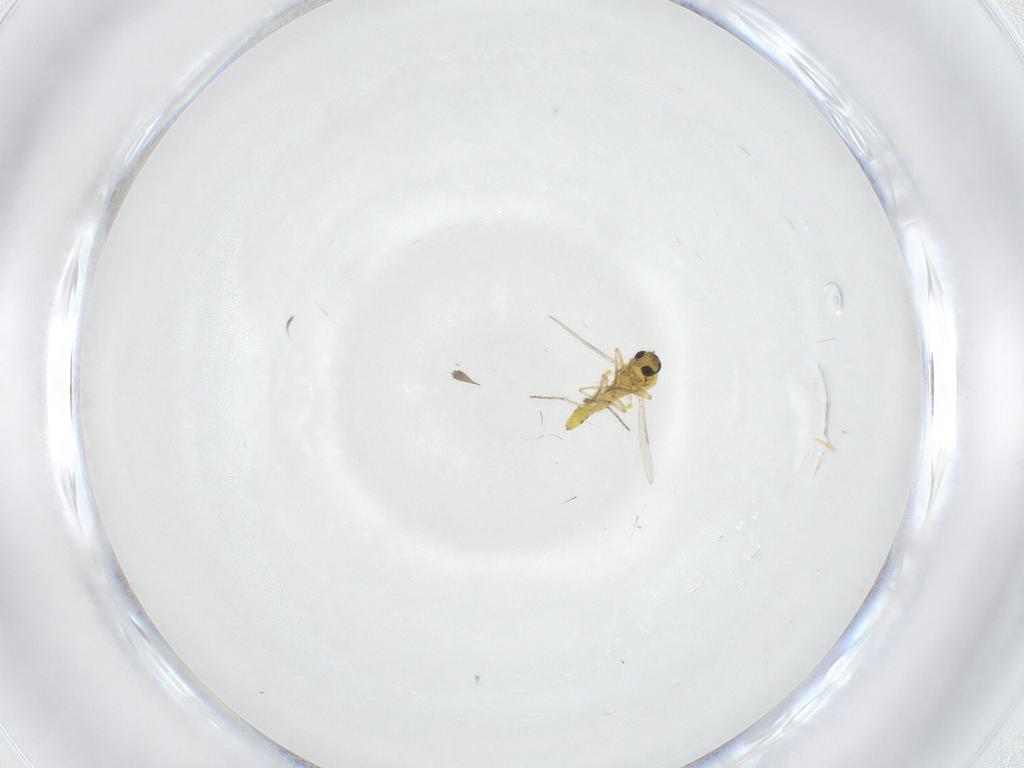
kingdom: Animalia
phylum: Arthropoda
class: Insecta
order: Diptera
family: Ceratopogonidae
